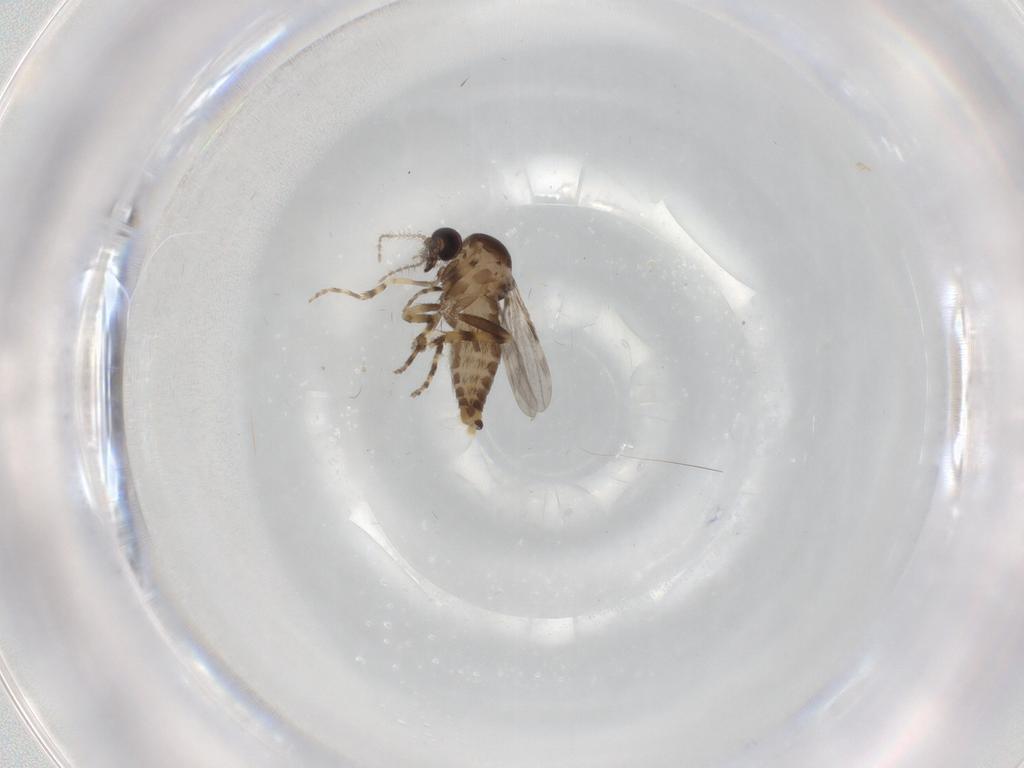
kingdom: Animalia
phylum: Arthropoda
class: Insecta
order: Diptera
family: Ceratopogonidae
